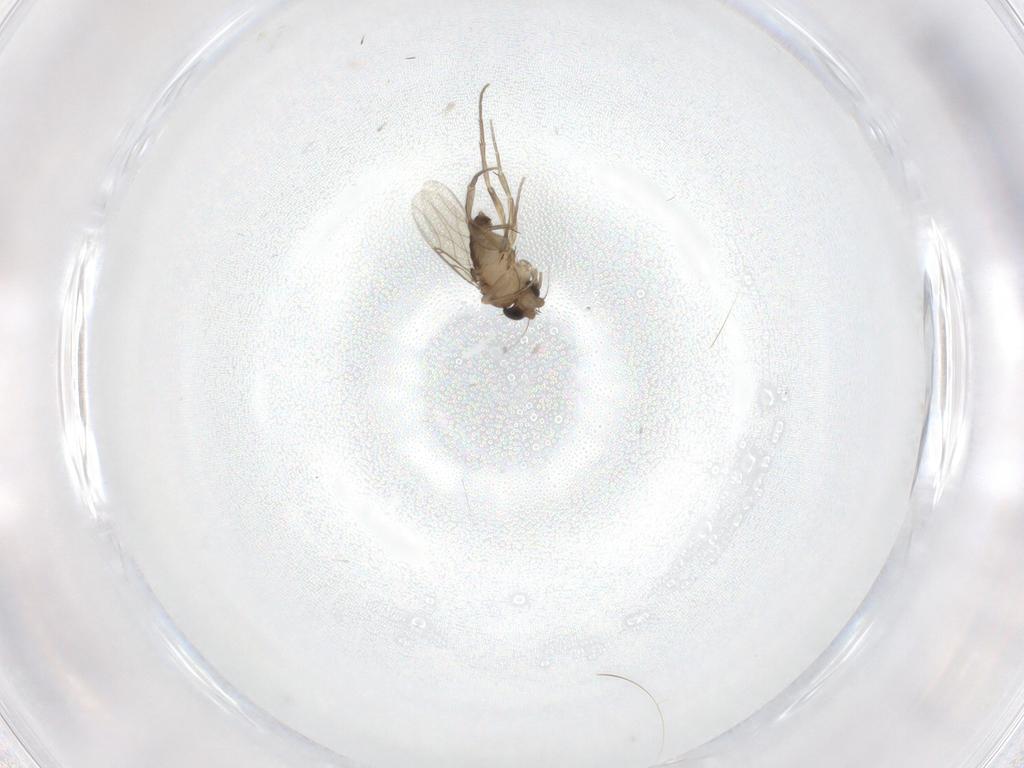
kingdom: Animalia
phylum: Arthropoda
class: Insecta
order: Diptera
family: Phoridae
